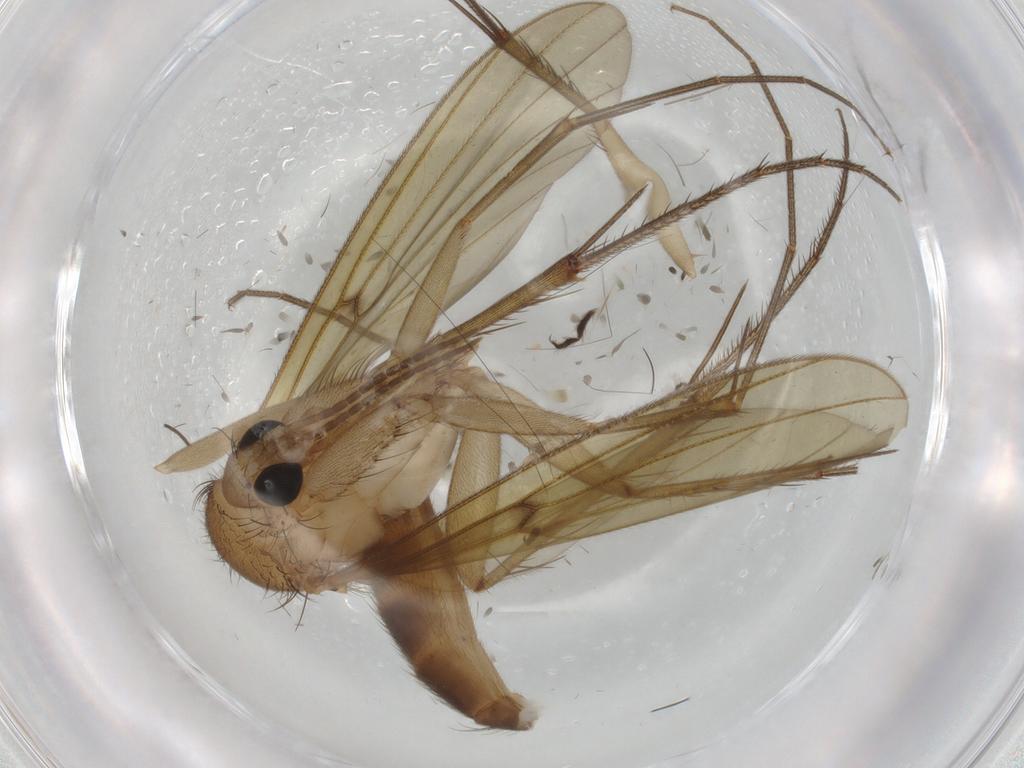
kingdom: Animalia
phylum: Arthropoda
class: Insecta
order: Diptera
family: Mycetophilidae
